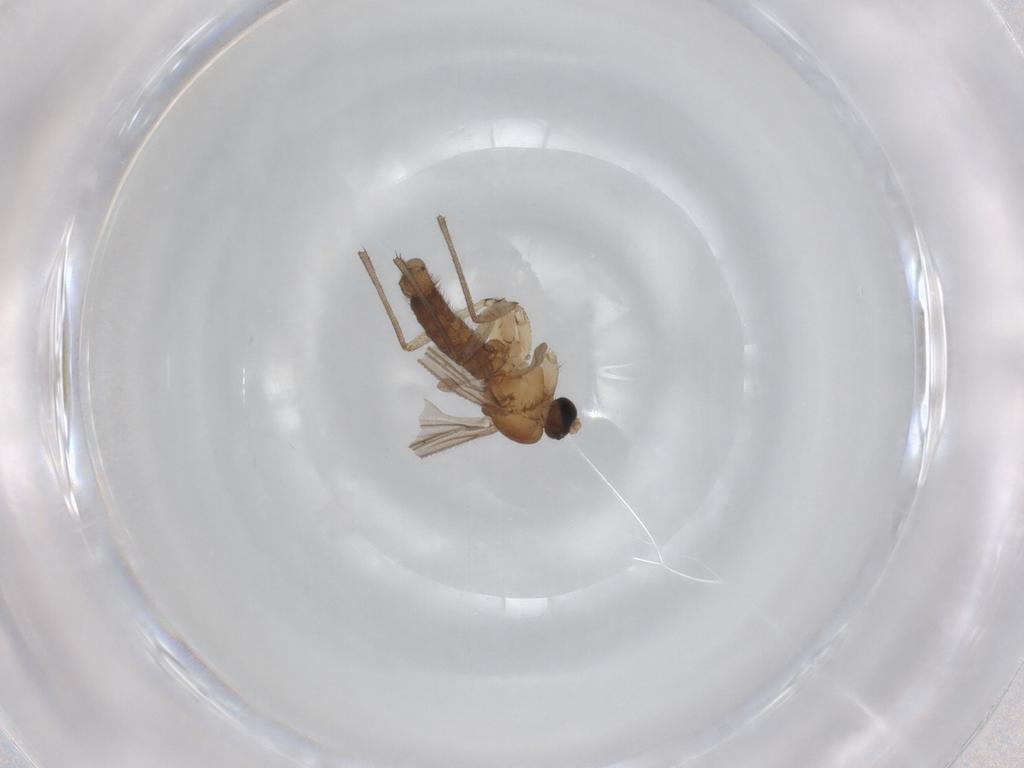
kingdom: Animalia
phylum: Arthropoda
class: Insecta
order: Diptera
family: Sciaridae
